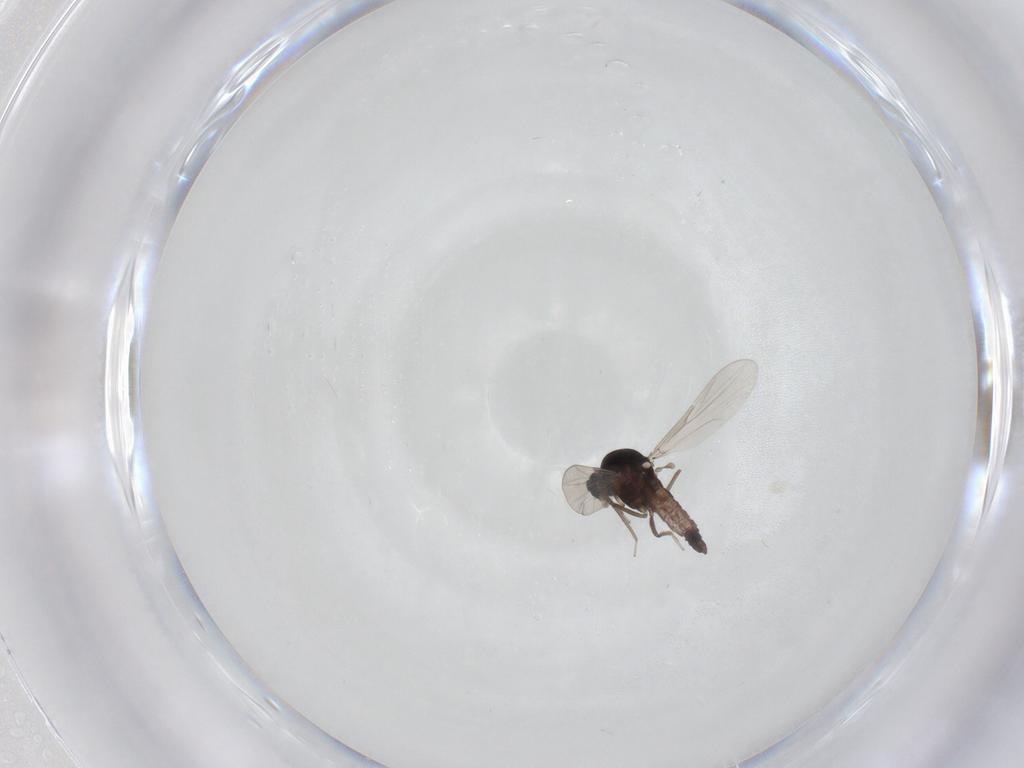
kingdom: Animalia
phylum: Arthropoda
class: Insecta
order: Diptera
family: Ceratopogonidae
